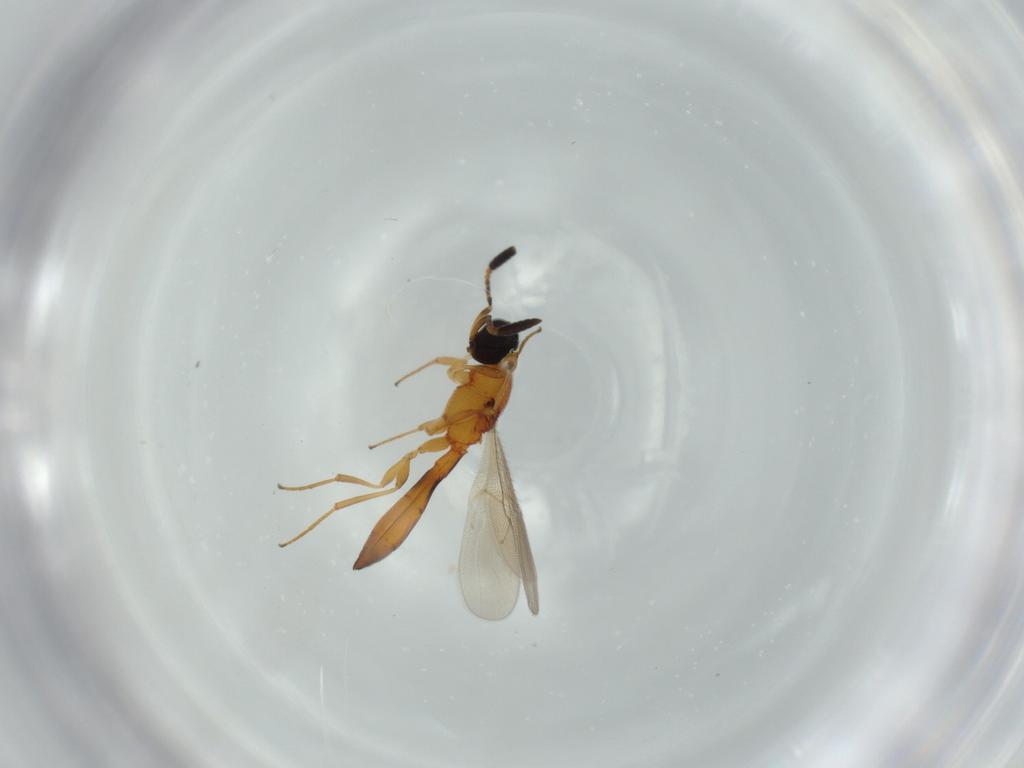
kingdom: Animalia
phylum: Arthropoda
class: Insecta
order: Hymenoptera
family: Scelionidae
